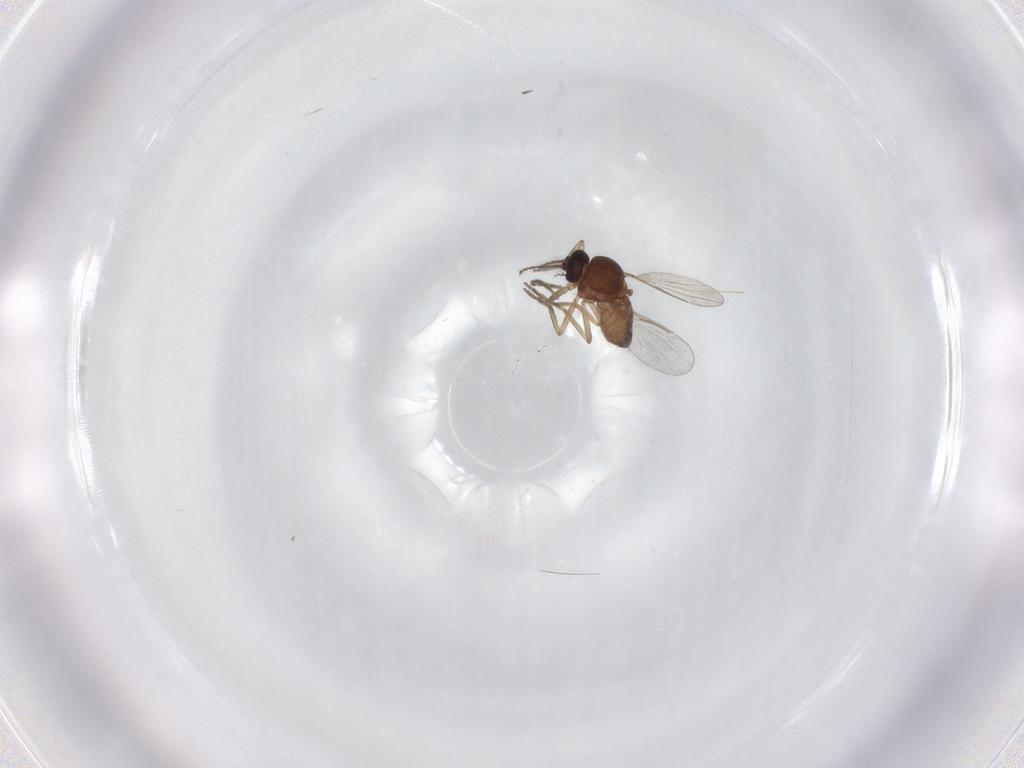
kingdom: Animalia
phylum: Arthropoda
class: Insecta
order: Diptera
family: Ceratopogonidae
